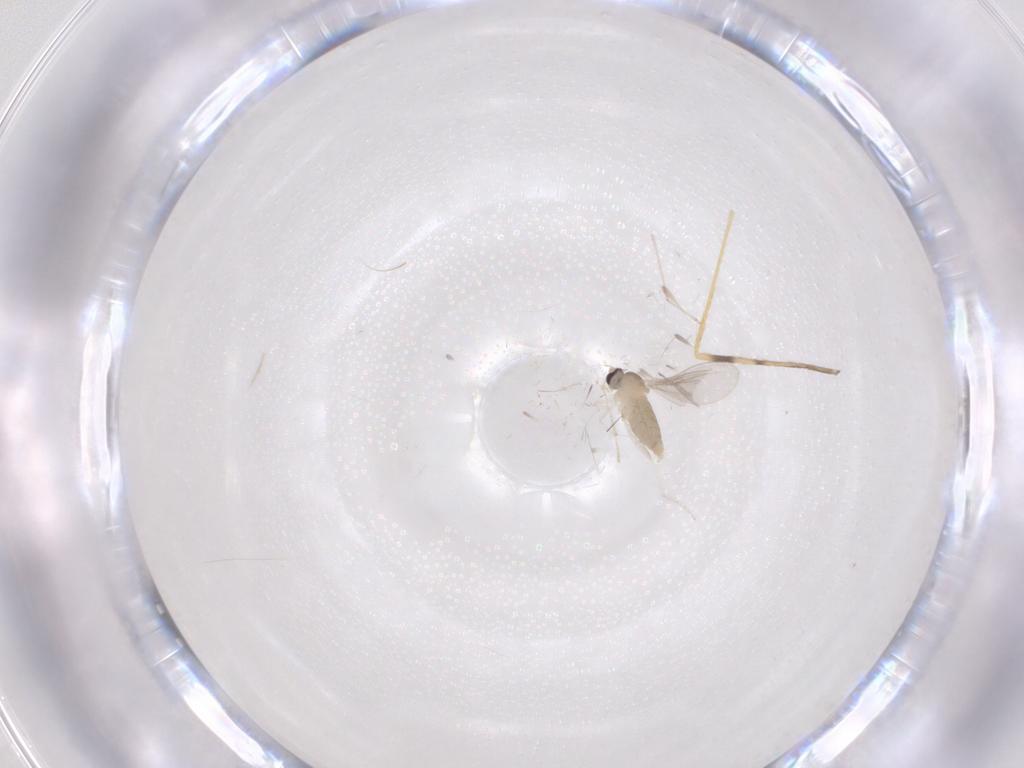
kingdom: Animalia
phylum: Arthropoda
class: Insecta
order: Diptera
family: Cecidomyiidae
